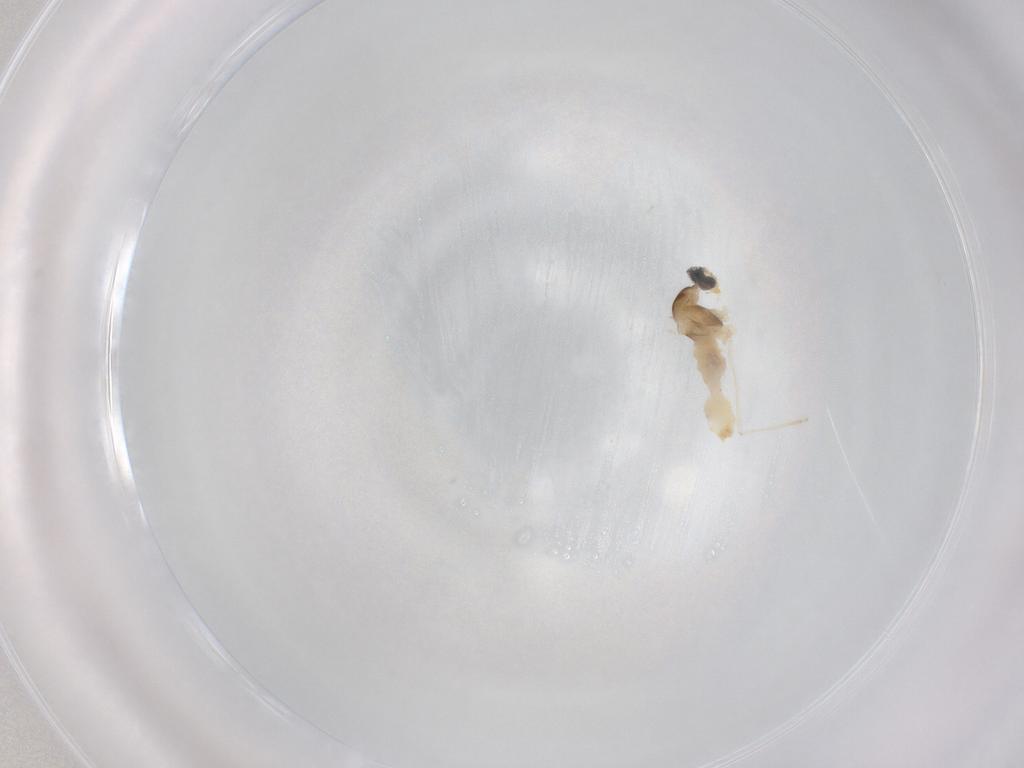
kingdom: Animalia
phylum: Arthropoda
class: Insecta
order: Diptera
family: Cecidomyiidae
